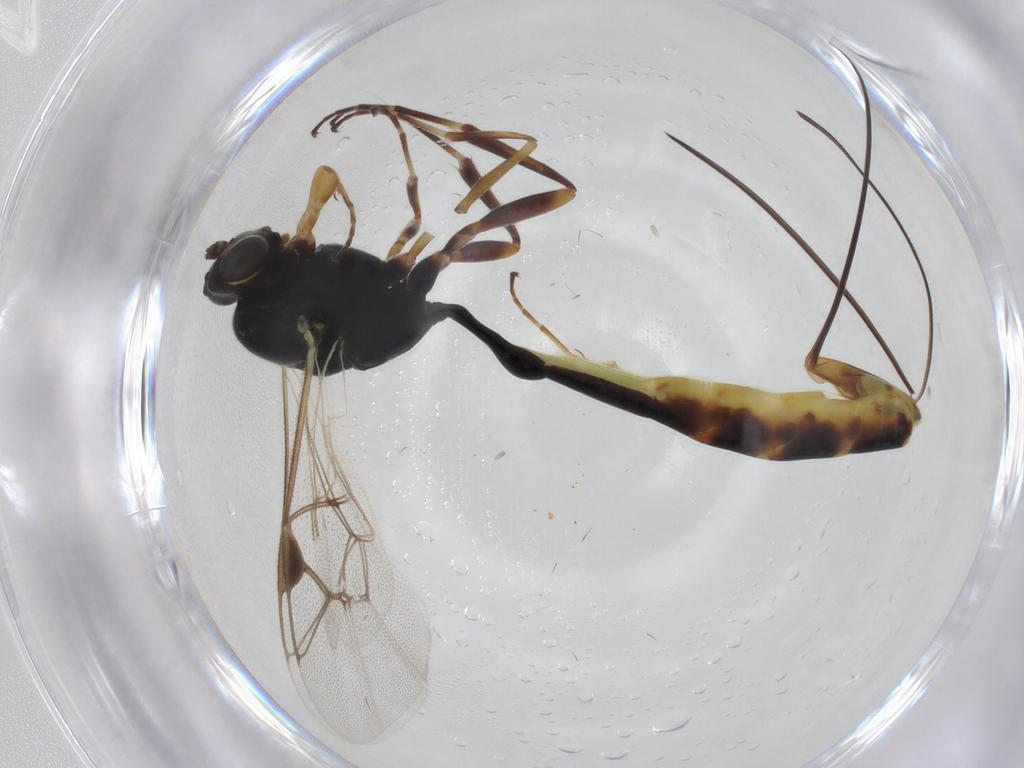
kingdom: Animalia
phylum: Arthropoda
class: Insecta
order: Hymenoptera
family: Ichneumonidae
